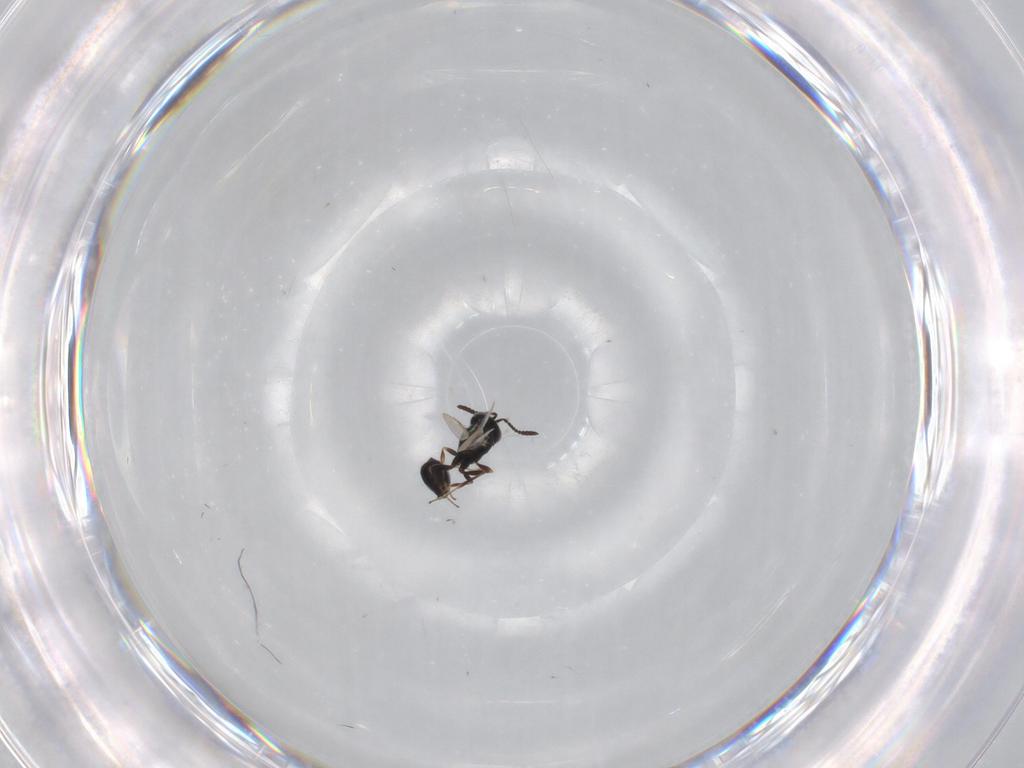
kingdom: Animalia
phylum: Arthropoda
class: Insecta
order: Hymenoptera
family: Scelionidae
